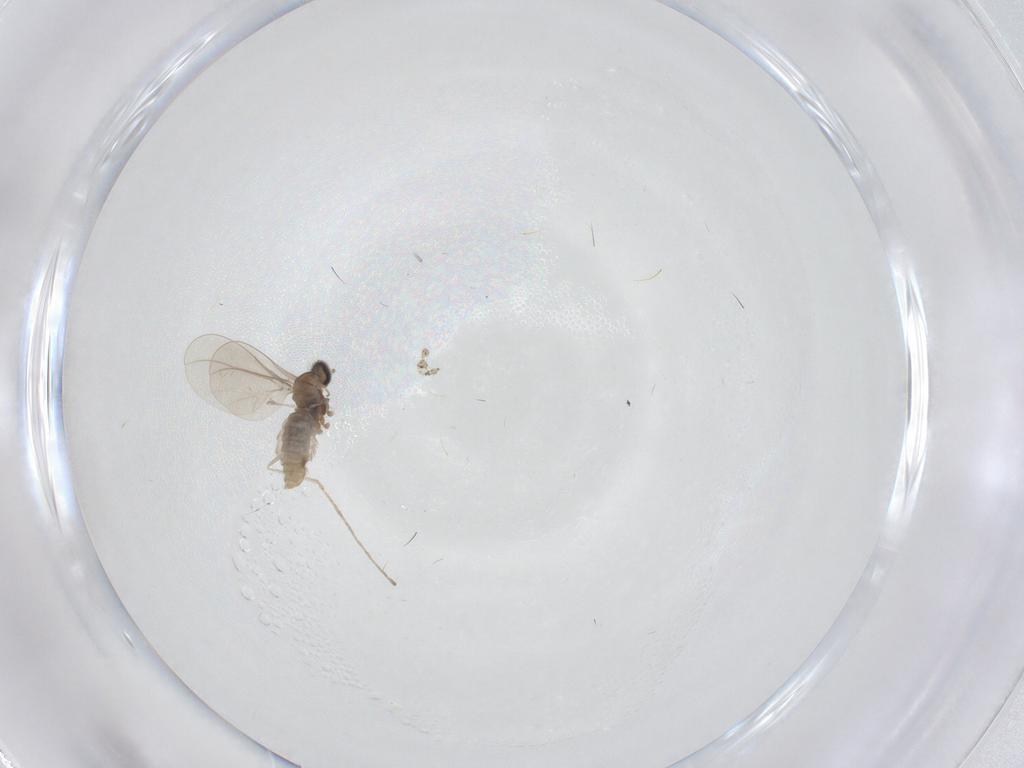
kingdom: Animalia
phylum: Arthropoda
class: Insecta
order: Diptera
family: Cecidomyiidae
